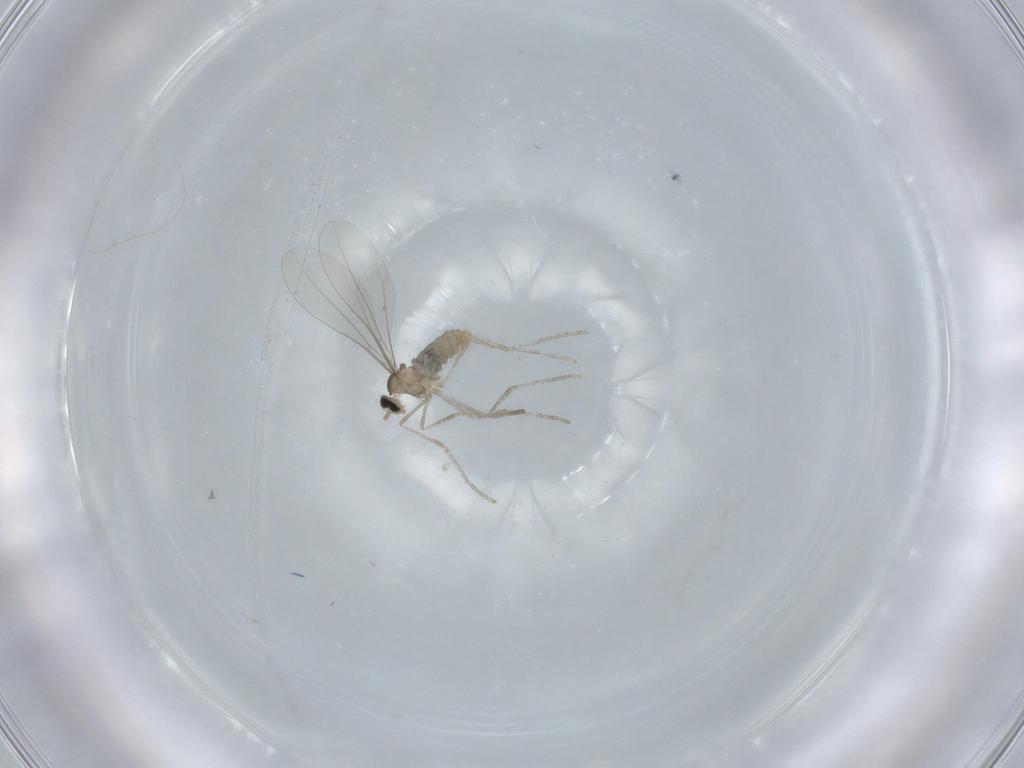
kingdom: Animalia
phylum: Arthropoda
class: Insecta
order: Diptera
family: Cecidomyiidae
